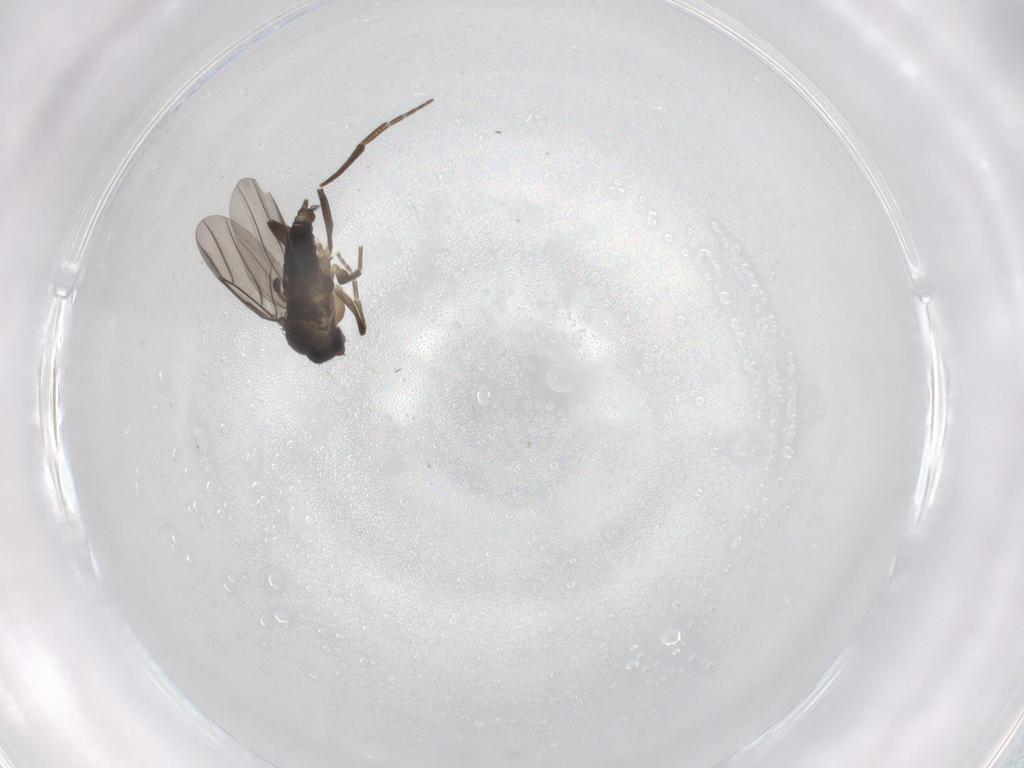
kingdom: Animalia
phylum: Arthropoda
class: Insecta
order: Diptera
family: Phoridae
